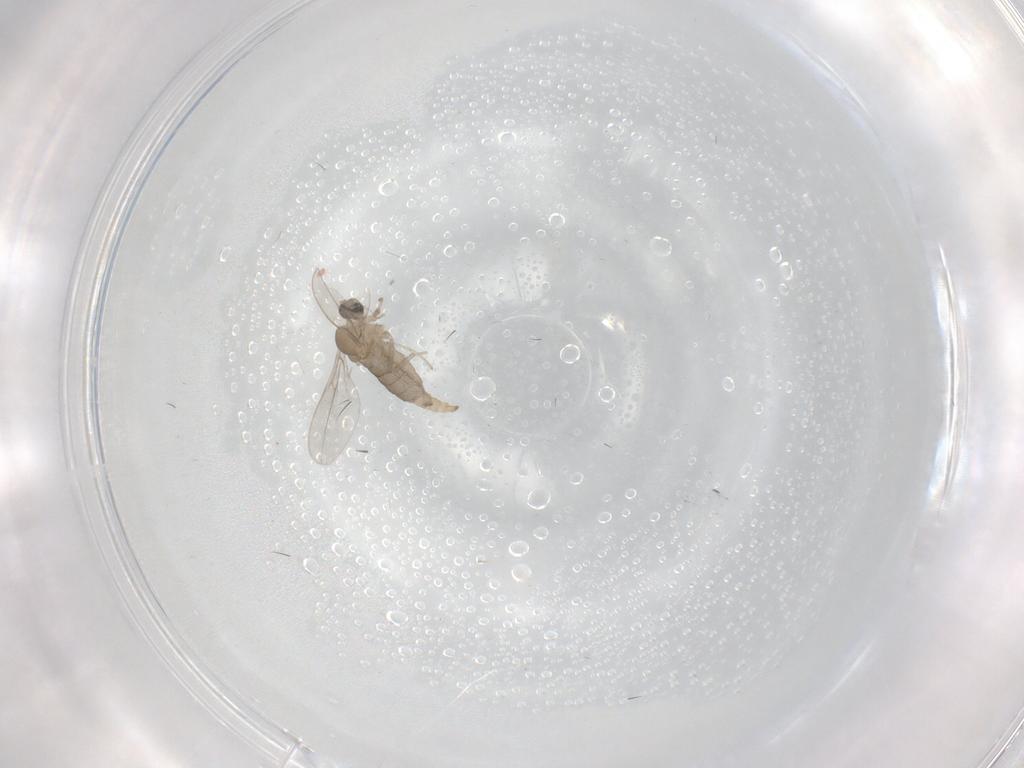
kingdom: Animalia
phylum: Arthropoda
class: Insecta
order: Diptera
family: Cecidomyiidae
